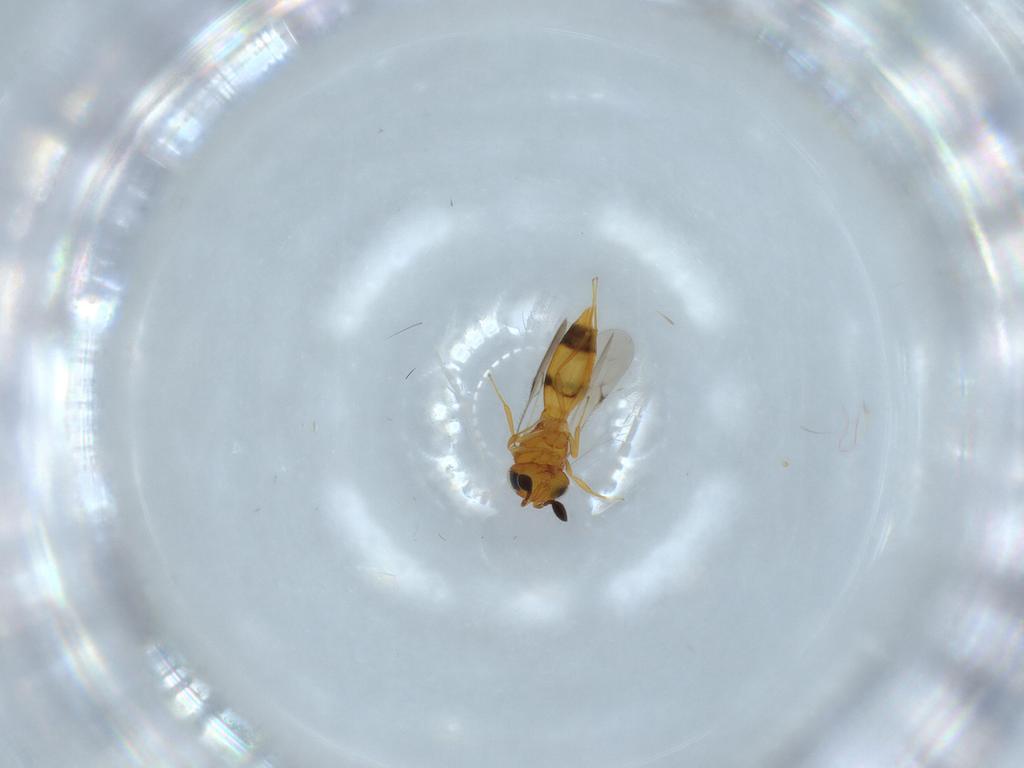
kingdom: Animalia
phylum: Arthropoda
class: Insecta
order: Hymenoptera
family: Scelionidae
